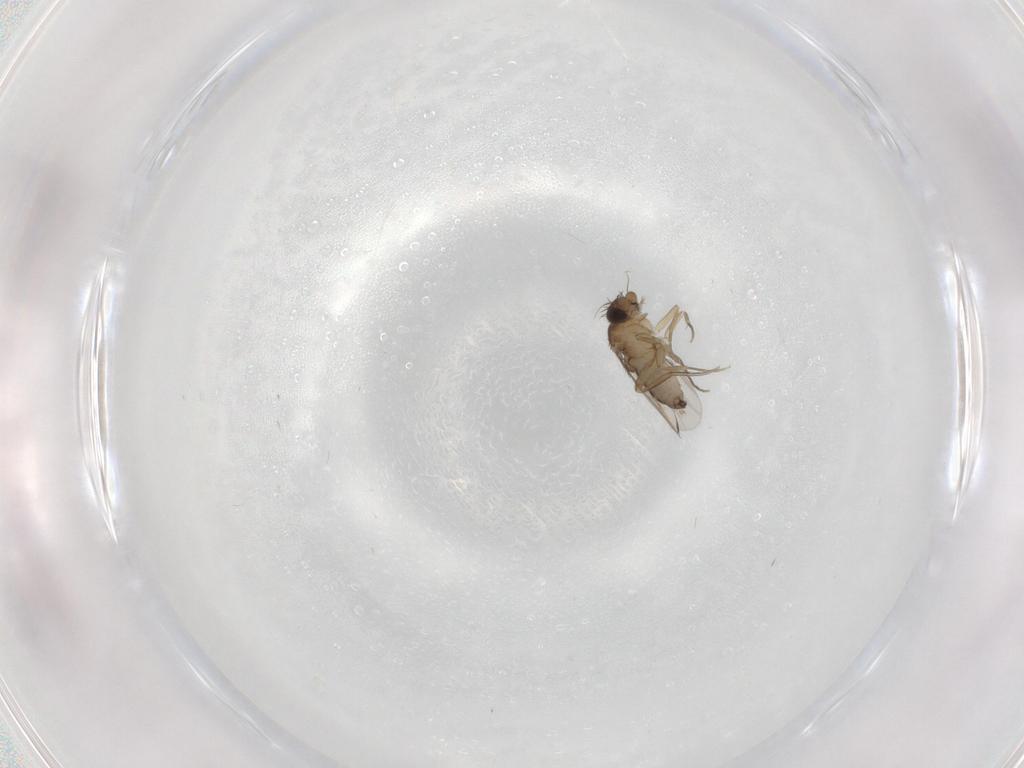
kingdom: Animalia
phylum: Arthropoda
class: Insecta
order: Diptera
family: Phoridae
